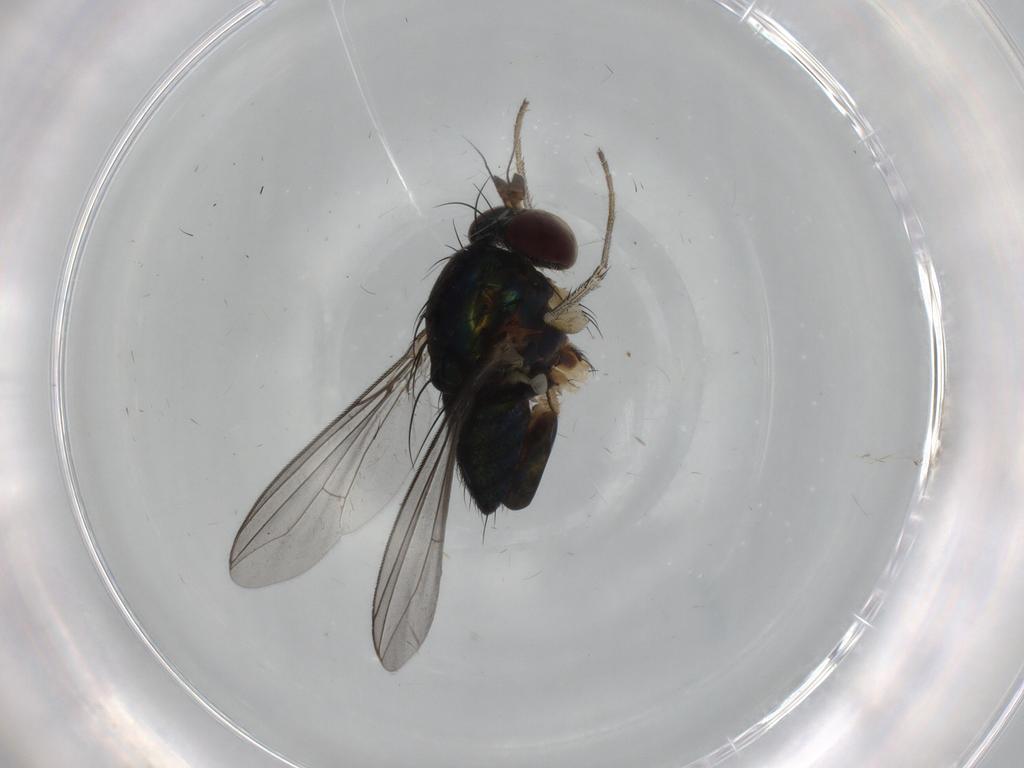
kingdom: Animalia
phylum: Arthropoda
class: Insecta
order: Diptera
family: Dolichopodidae
